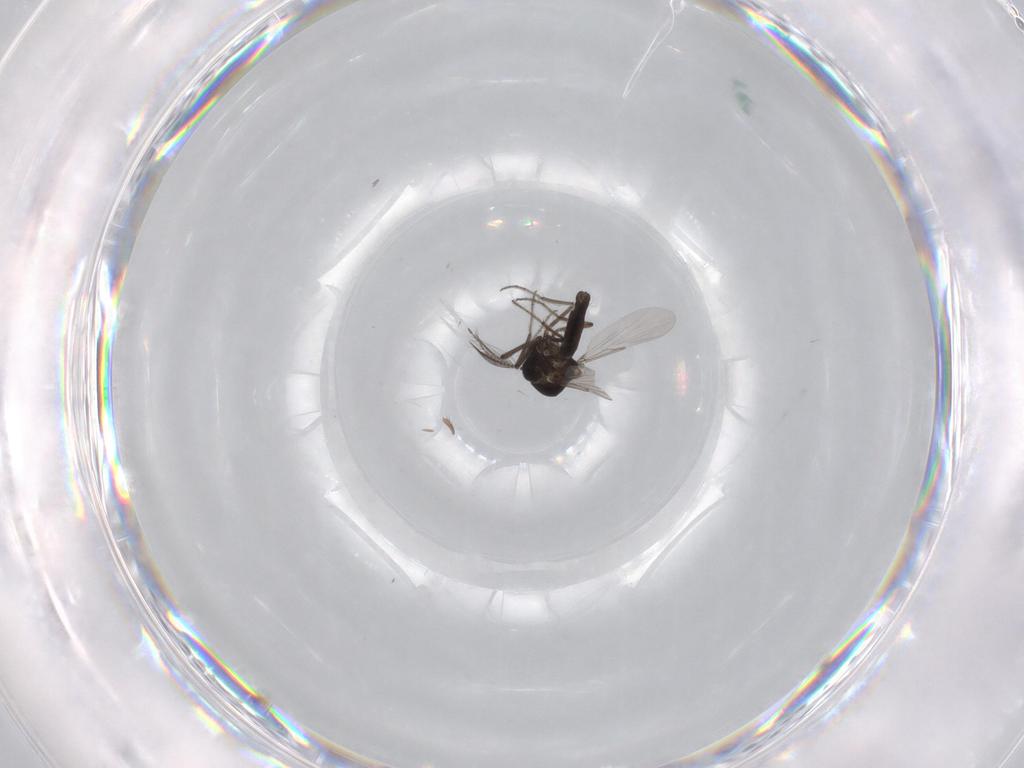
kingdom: Animalia
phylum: Arthropoda
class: Insecta
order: Diptera
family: Ceratopogonidae
